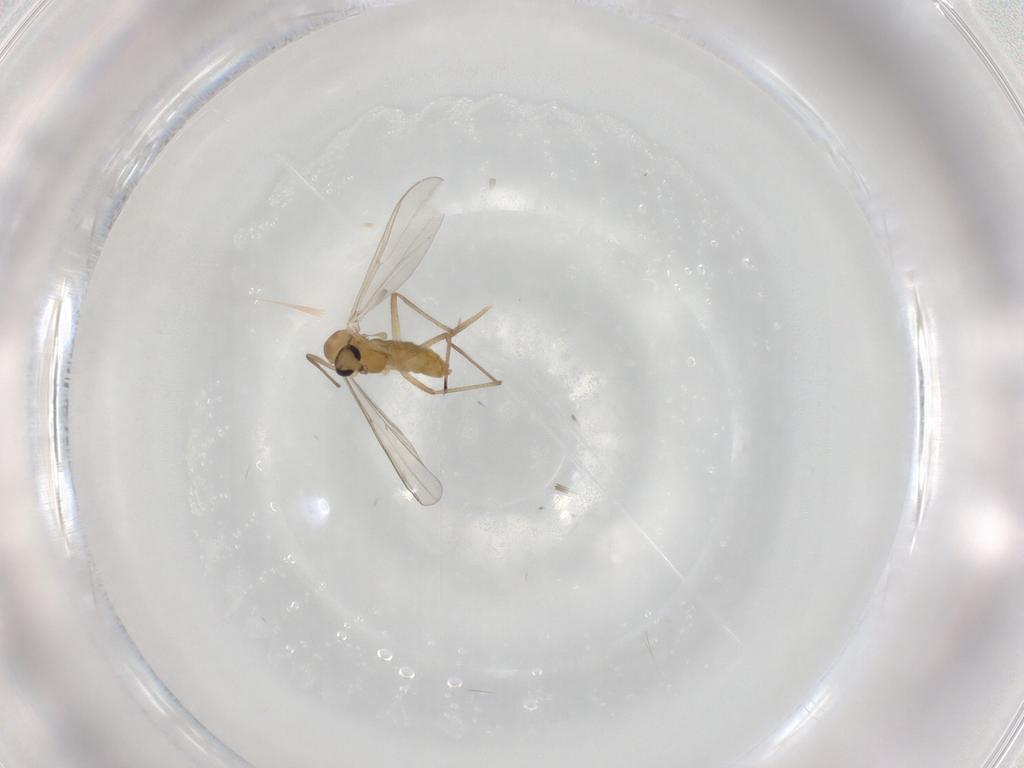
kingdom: Animalia
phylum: Arthropoda
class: Insecta
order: Diptera
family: Chironomidae
